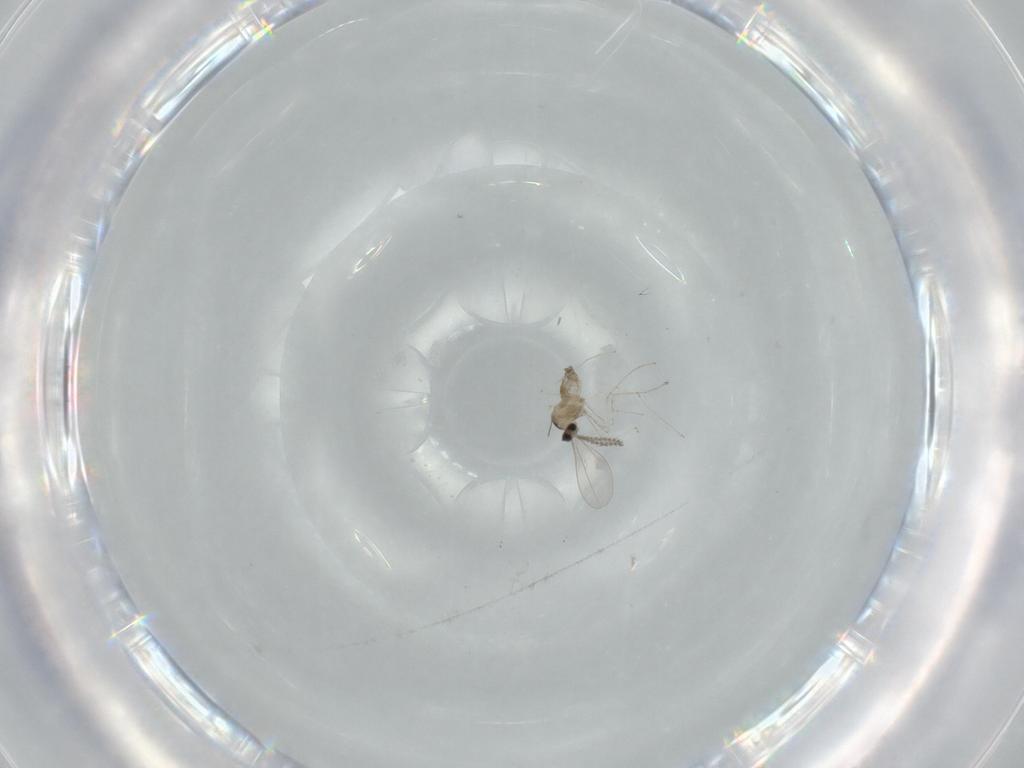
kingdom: Animalia
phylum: Arthropoda
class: Insecta
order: Diptera
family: Cecidomyiidae
